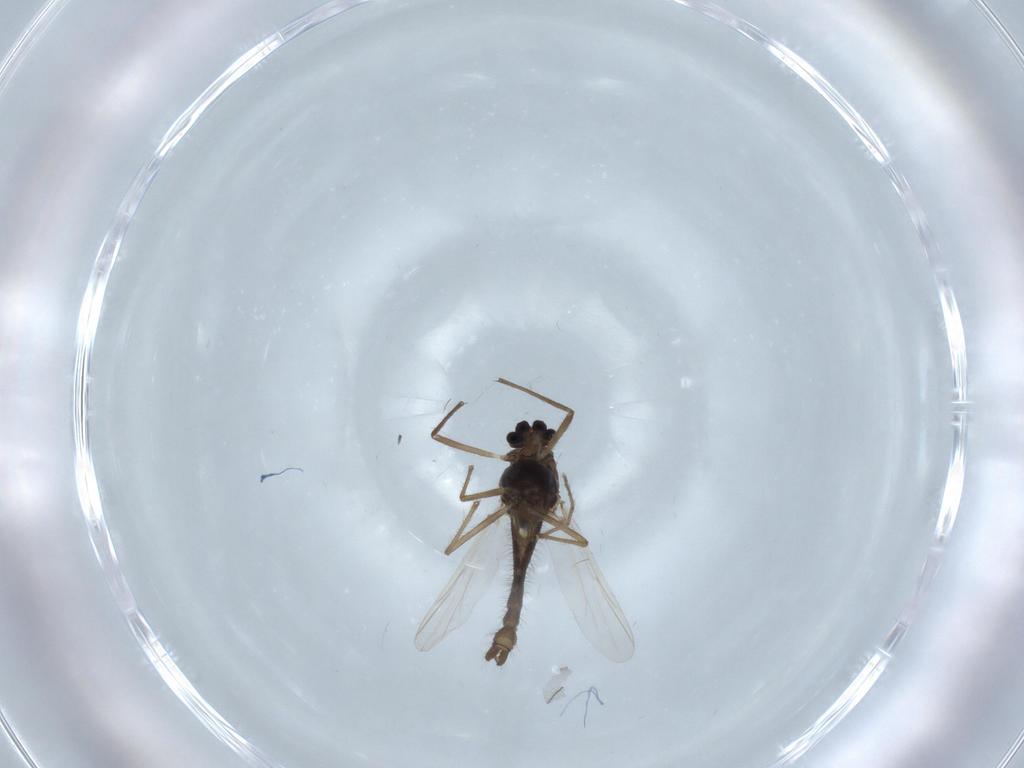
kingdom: Animalia
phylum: Arthropoda
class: Insecta
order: Diptera
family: Chironomidae
